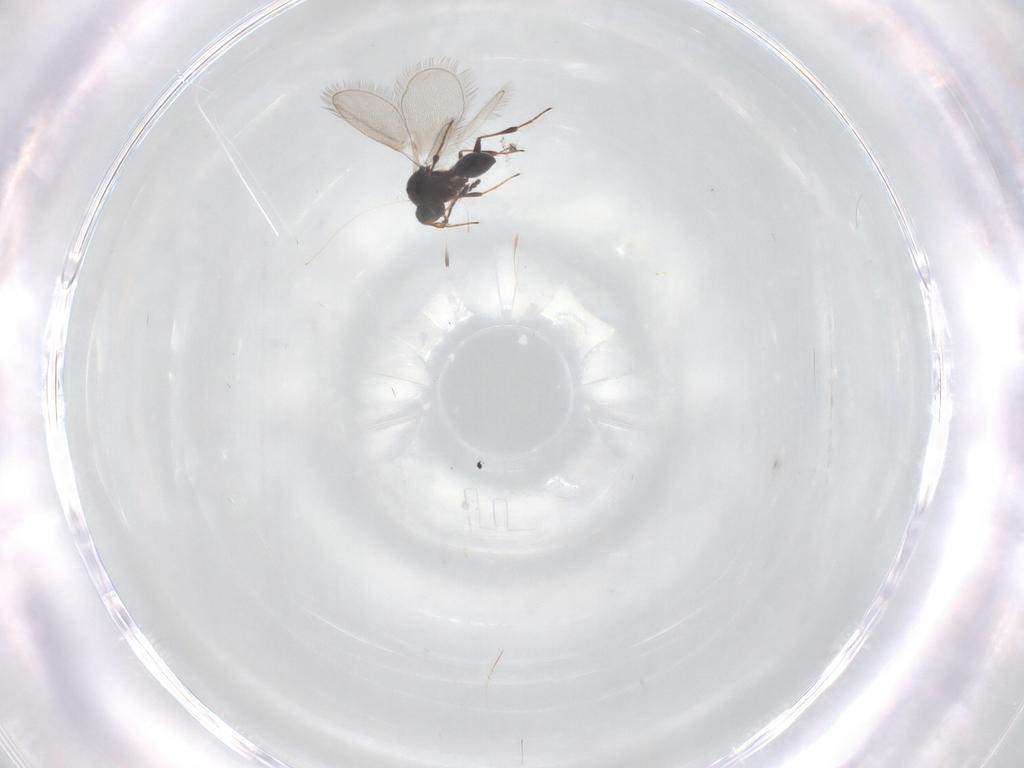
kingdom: Animalia
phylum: Arthropoda
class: Insecta
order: Hymenoptera
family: Platygastridae
